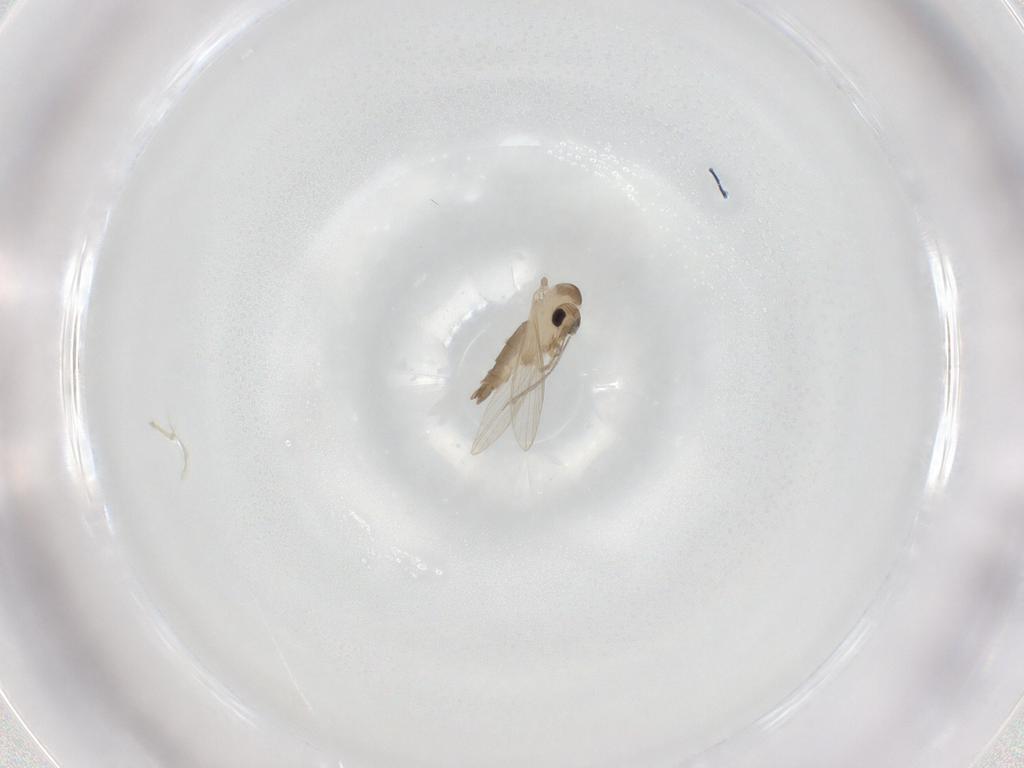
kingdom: Animalia
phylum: Arthropoda
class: Insecta
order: Diptera
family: Psychodidae
